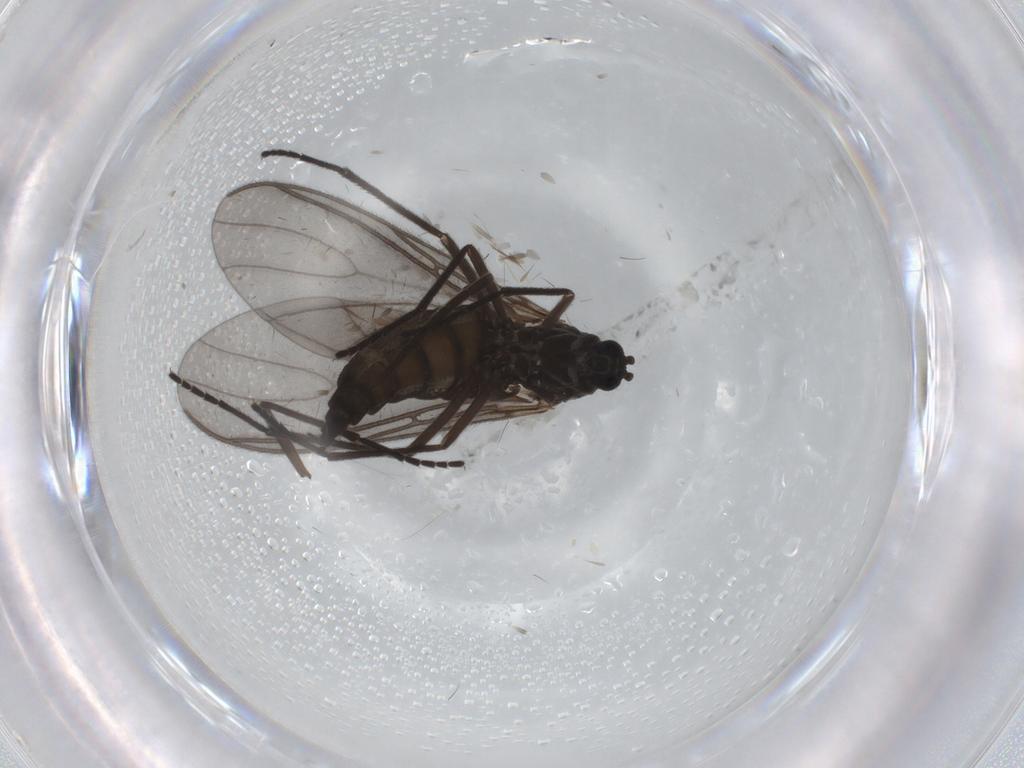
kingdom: Animalia
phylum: Arthropoda
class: Insecta
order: Diptera
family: Sciaridae
